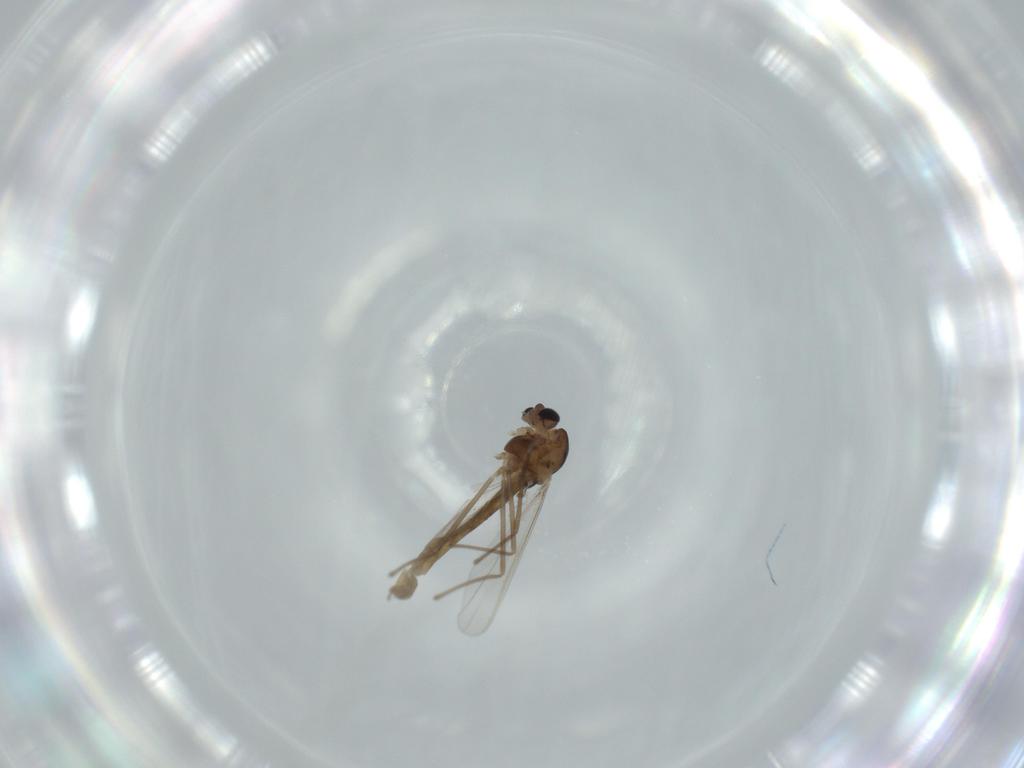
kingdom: Animalia
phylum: Arthropoda
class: Insecta
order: Diptera
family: Chironomidae
